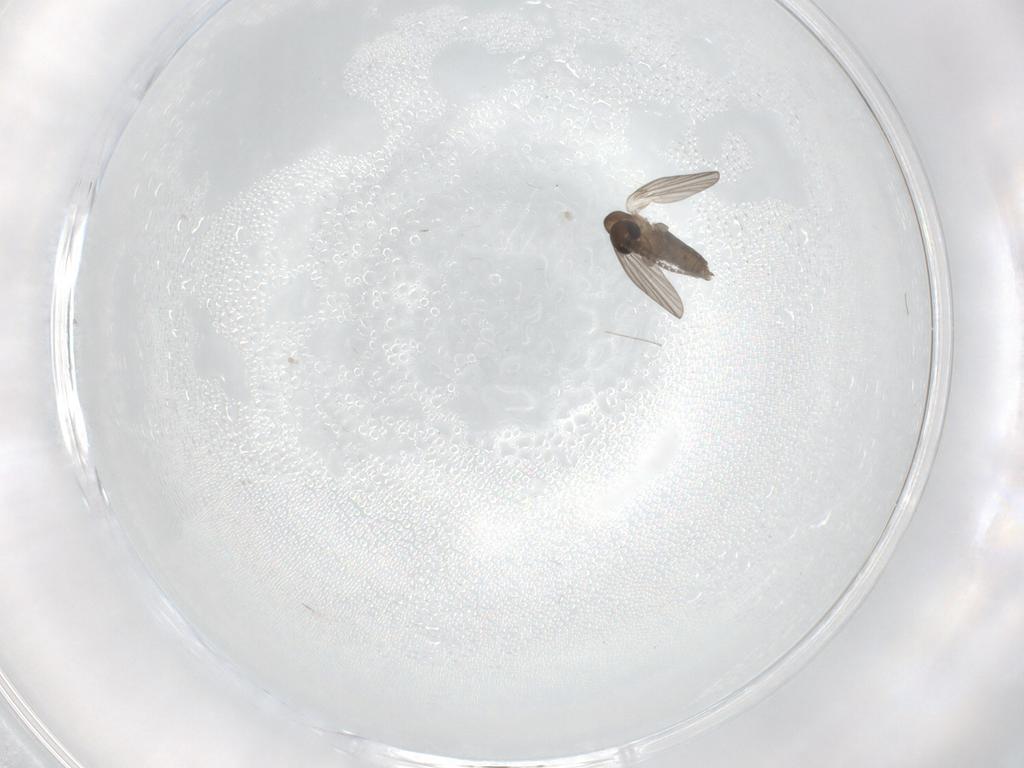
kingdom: Animalia
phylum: Arthropoda
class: Insecta
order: Diptera
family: Cecidomyiidae
